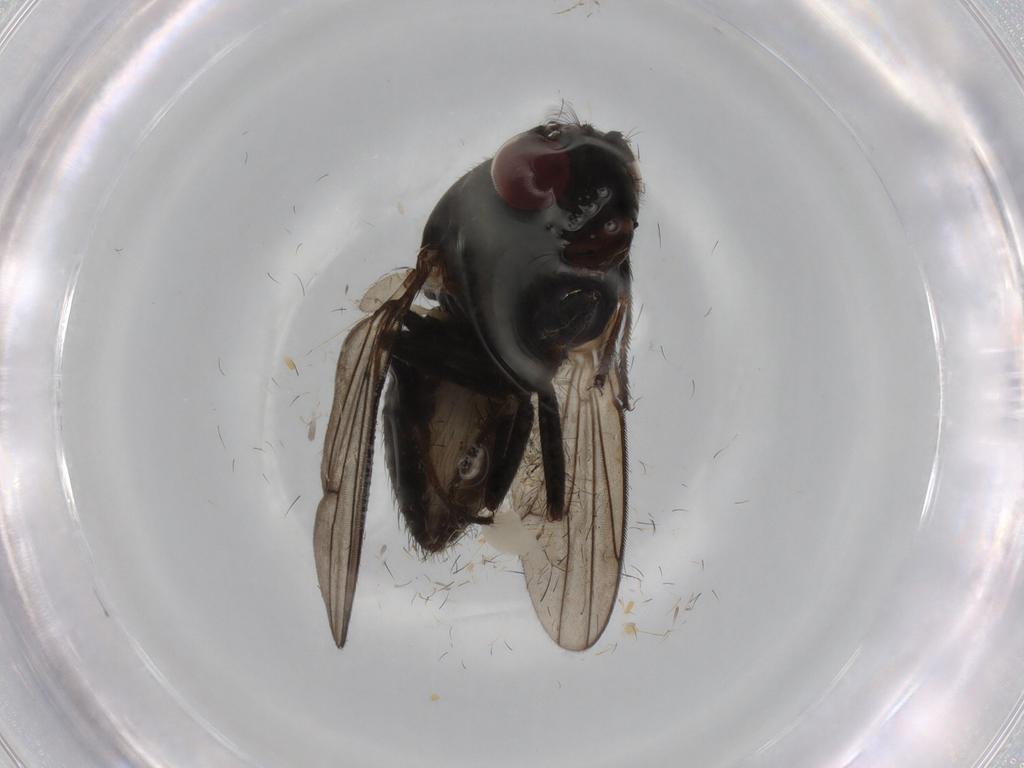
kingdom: Animalia
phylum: Arthropoda
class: Insecta
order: Diptera
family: Ephydridae
